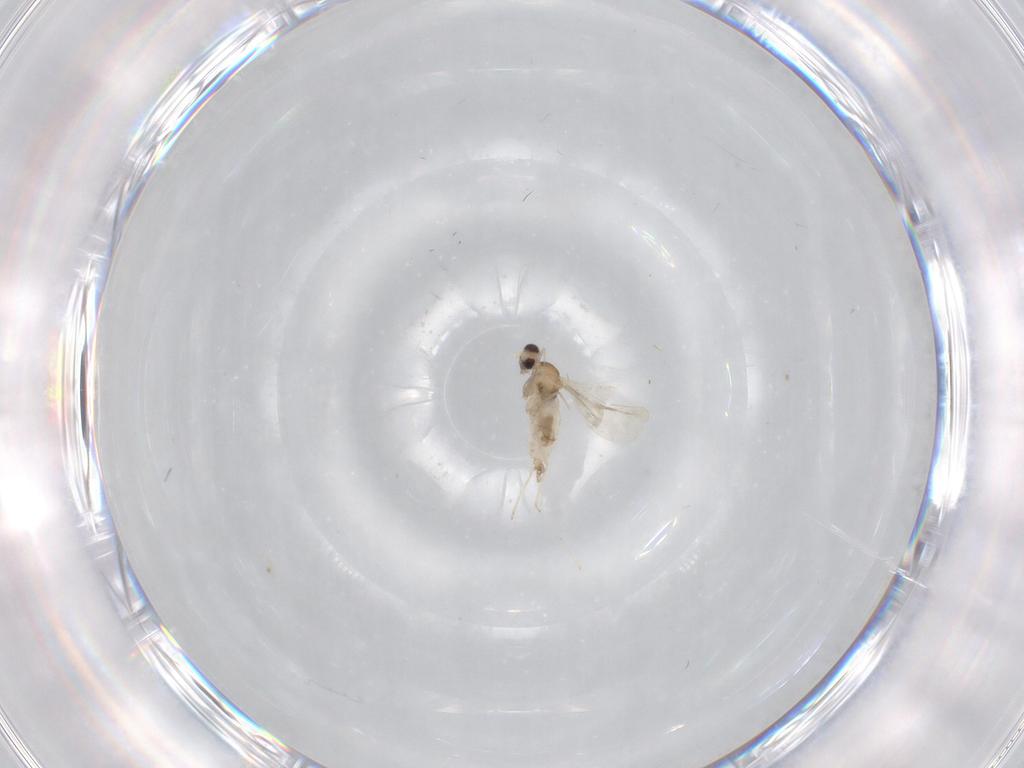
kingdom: Animalia
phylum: Arthropoda
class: Insecta
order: Diptera
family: Cecidomyiidae
